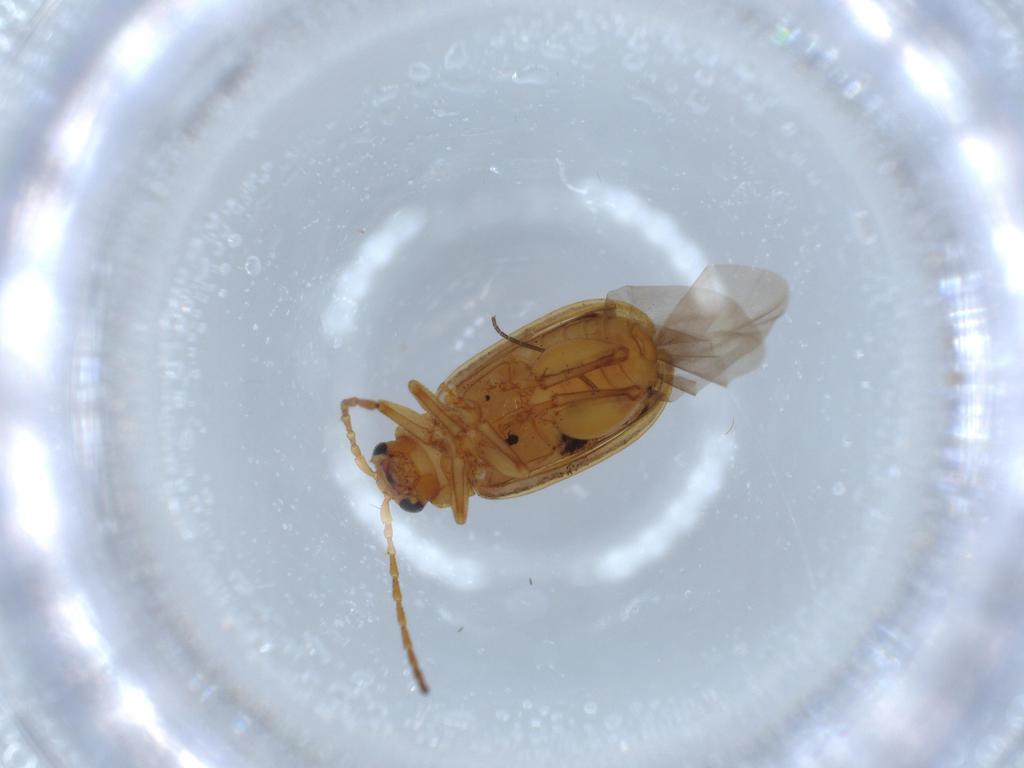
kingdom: Animalia
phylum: Arthropoda
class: Insecta
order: Coleoptera
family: Chrysomelidae
